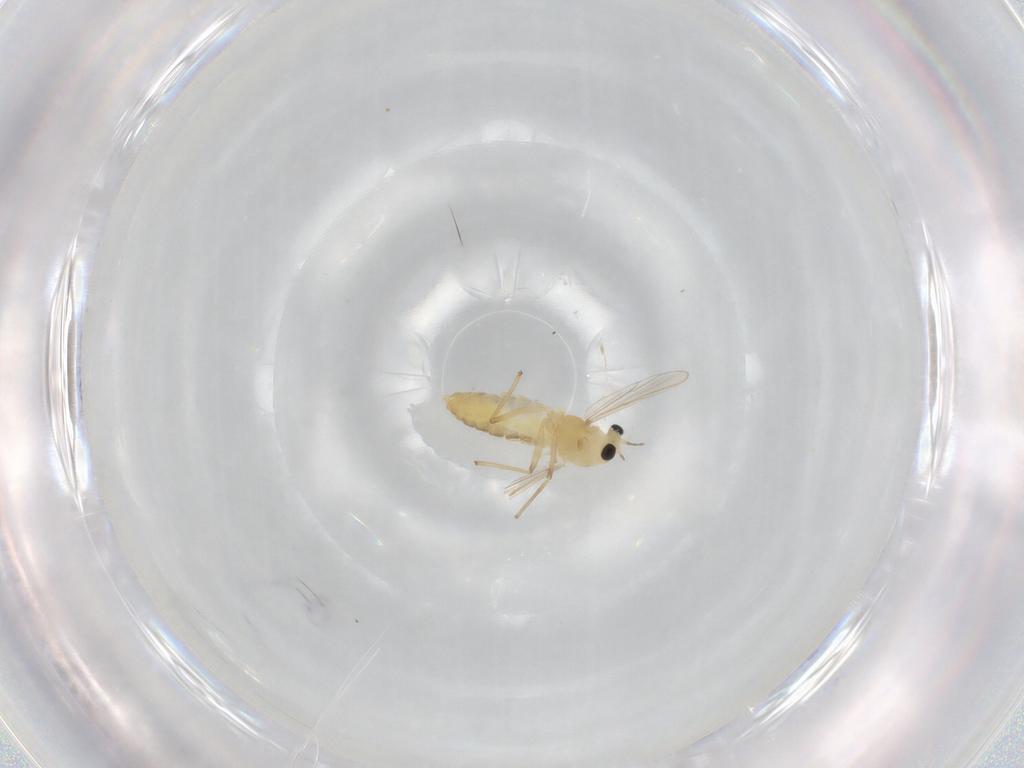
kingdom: Animalia
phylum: Arthropoda
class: Insecta
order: Diptera
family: Chironomidae
